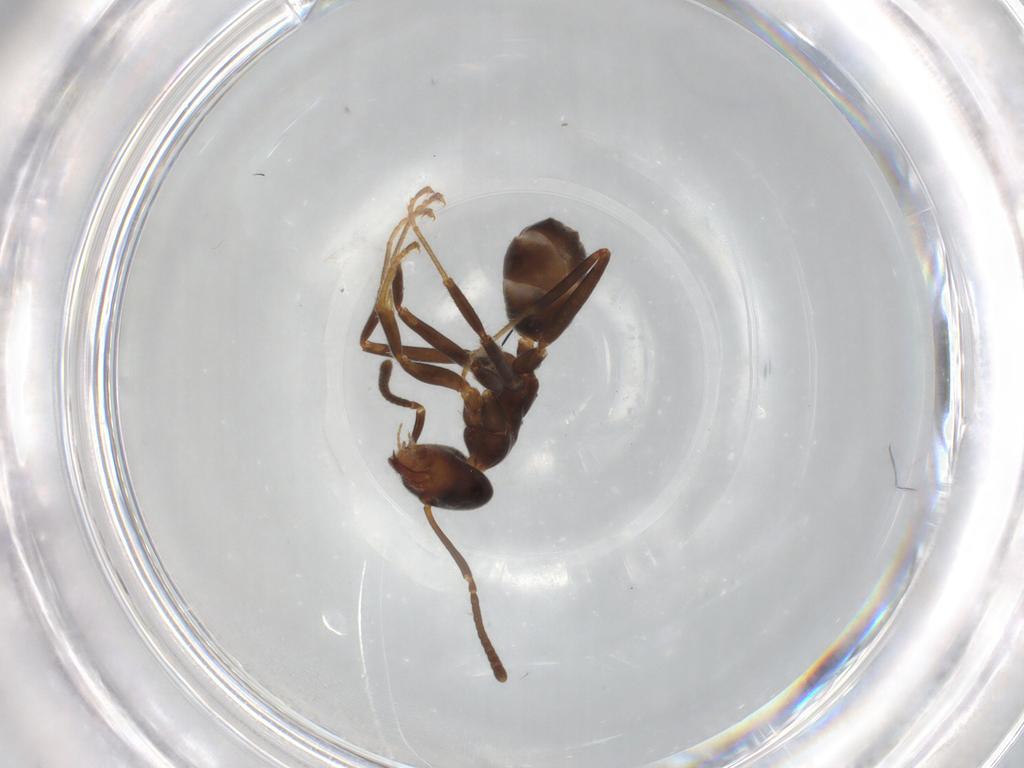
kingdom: Animalia
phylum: Arthropoda
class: Insecta
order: Hymenoptera
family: Formicidae
